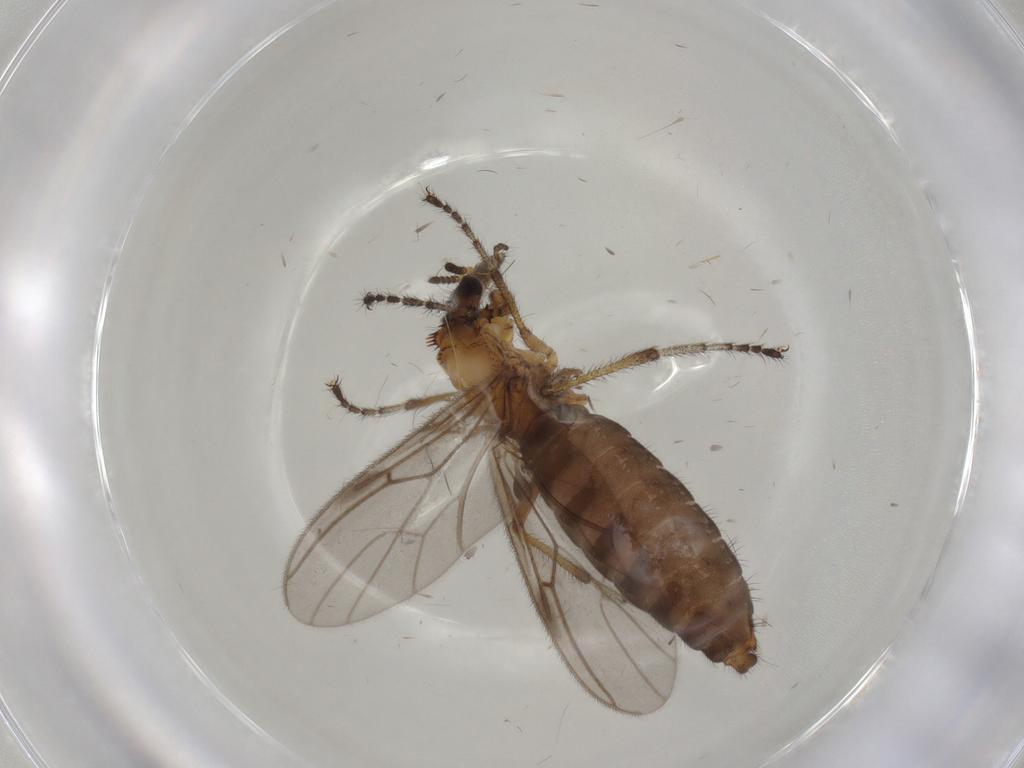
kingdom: Animalia
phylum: Arthropoda
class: Insecta
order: Diptera
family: Bibionidae
